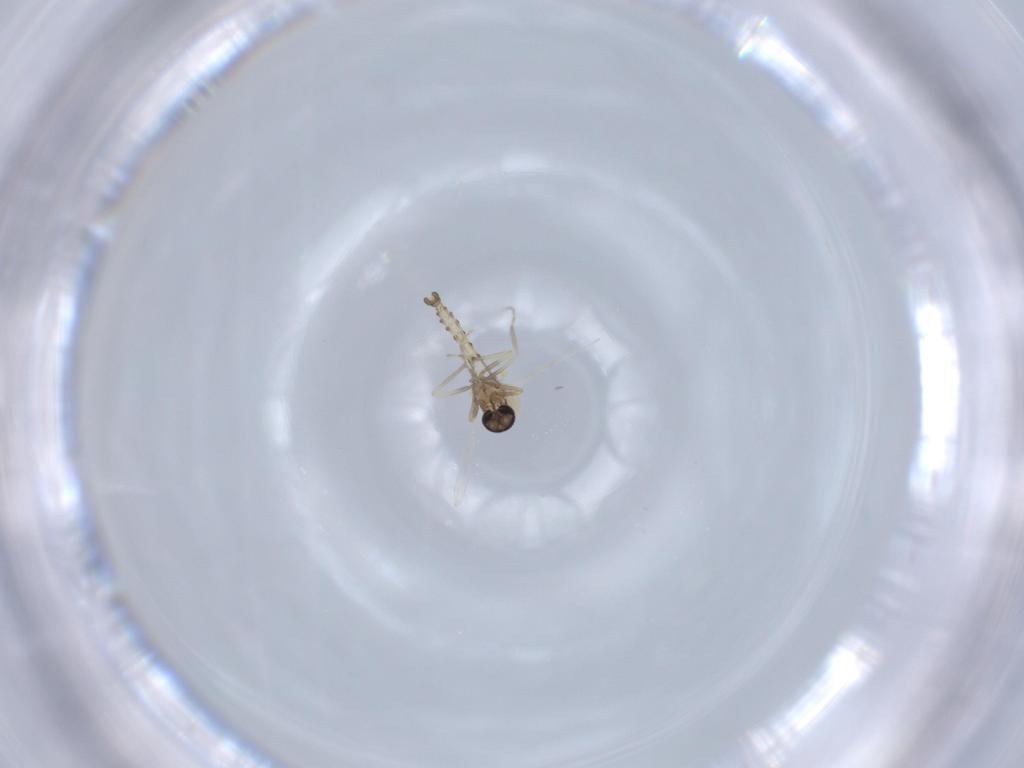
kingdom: Animalia
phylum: Arthropoda
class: Insecta
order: Diptera
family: Ceratopogonidae
